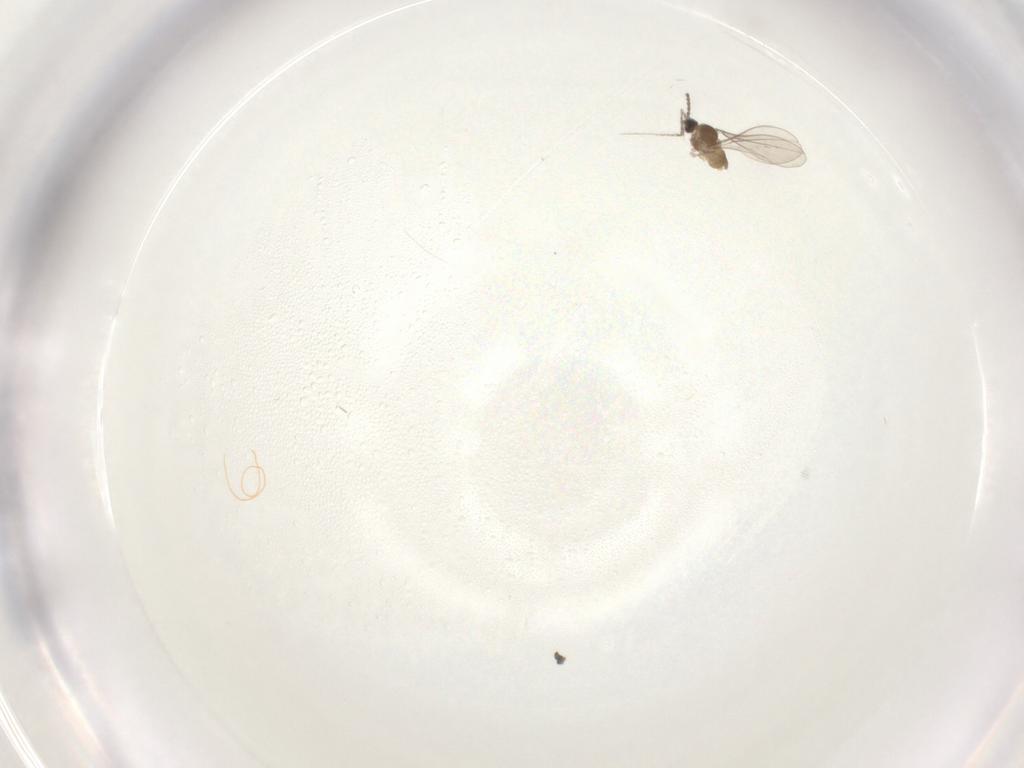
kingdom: Animalia
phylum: Arthropoda
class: Insecta
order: Diptera
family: Cecidomyiidae
